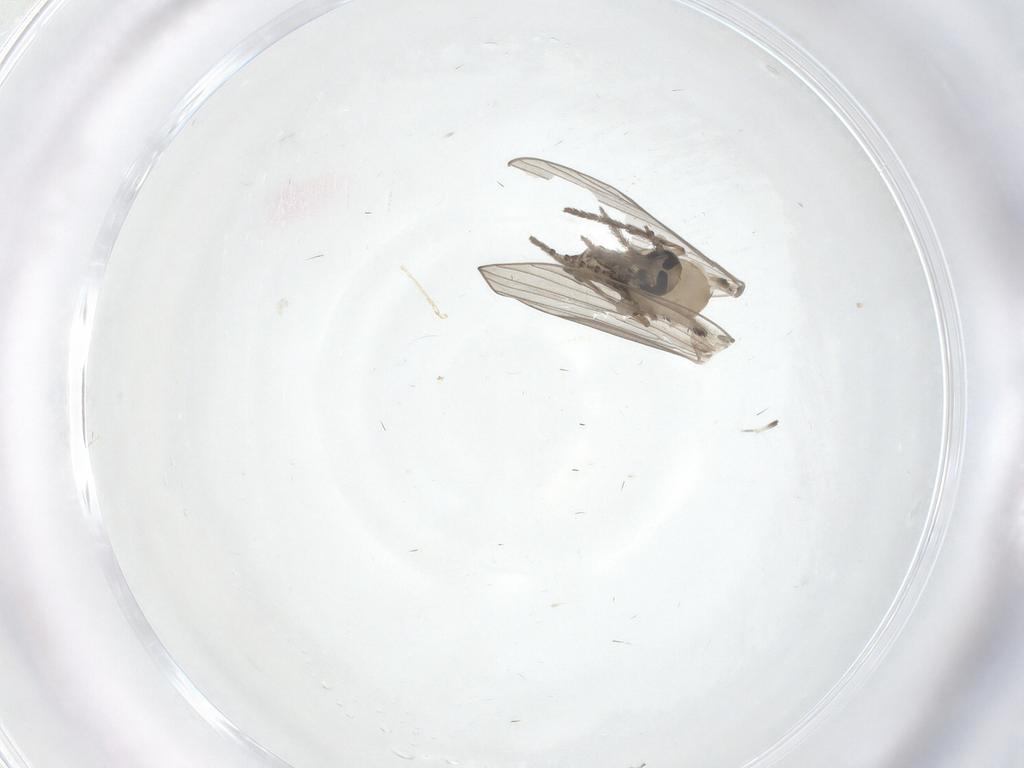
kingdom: Animalia
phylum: Arthropoda
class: Insecta
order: Diptera
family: Psychodidae
